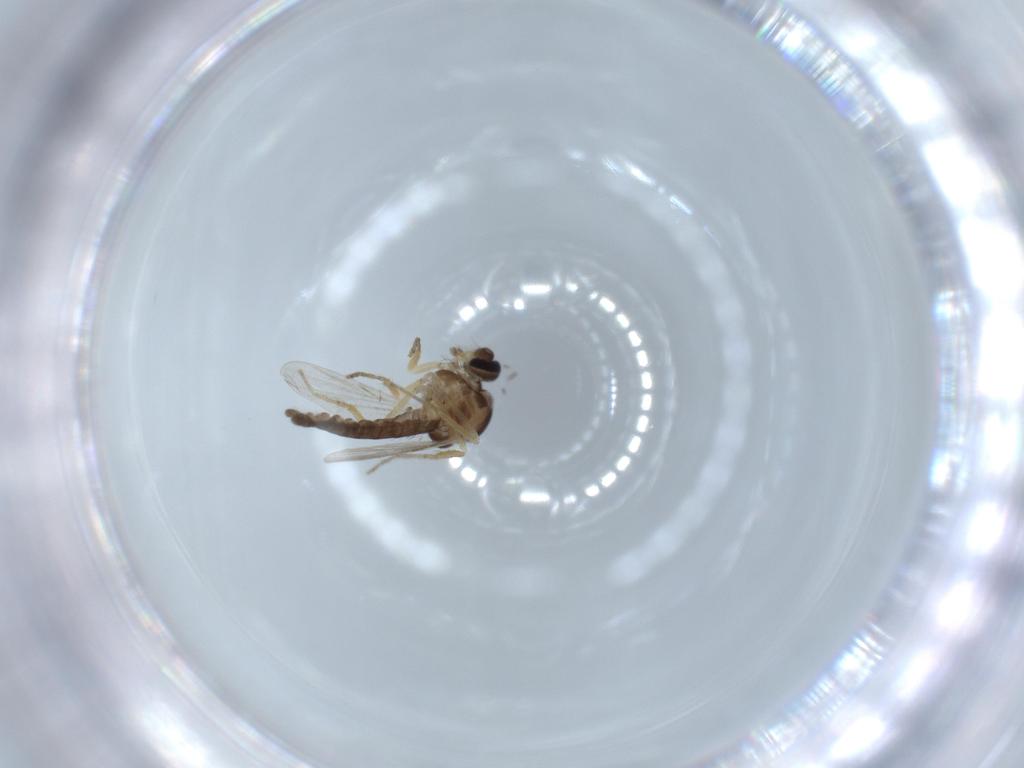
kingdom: Animalia
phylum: Arthropoda
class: Insecta
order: Diptera
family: Ceratopogonidae
